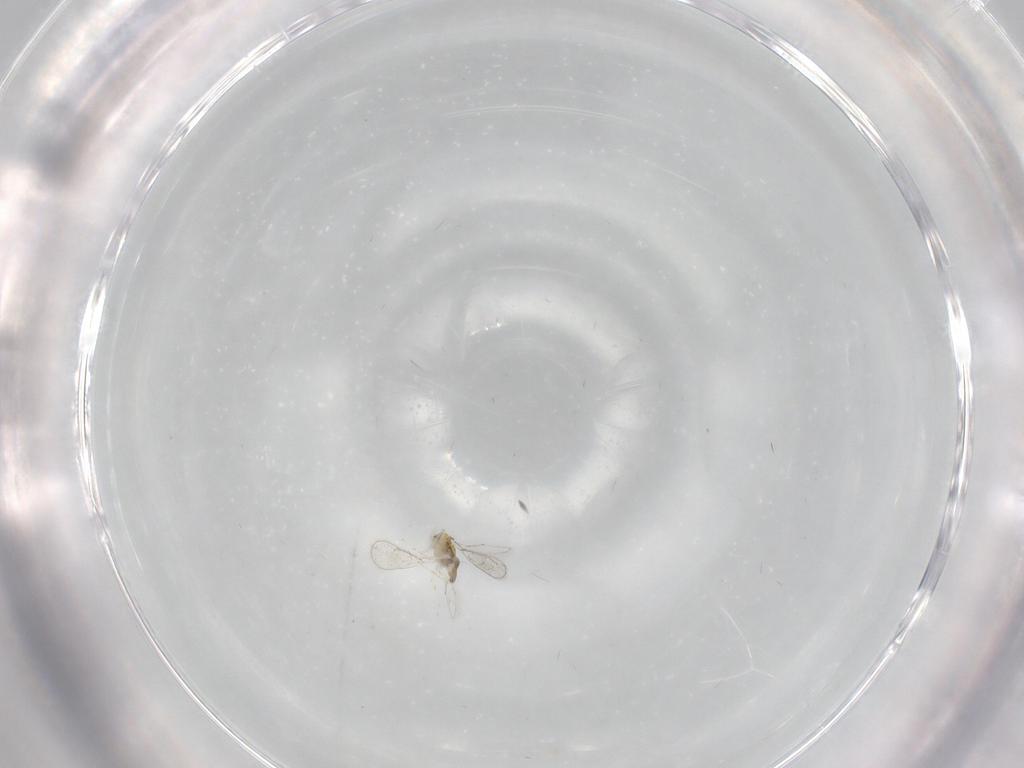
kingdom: Animalia
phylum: Arthropoda
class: Insecta
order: Hymenoptera
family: Eulophidae
